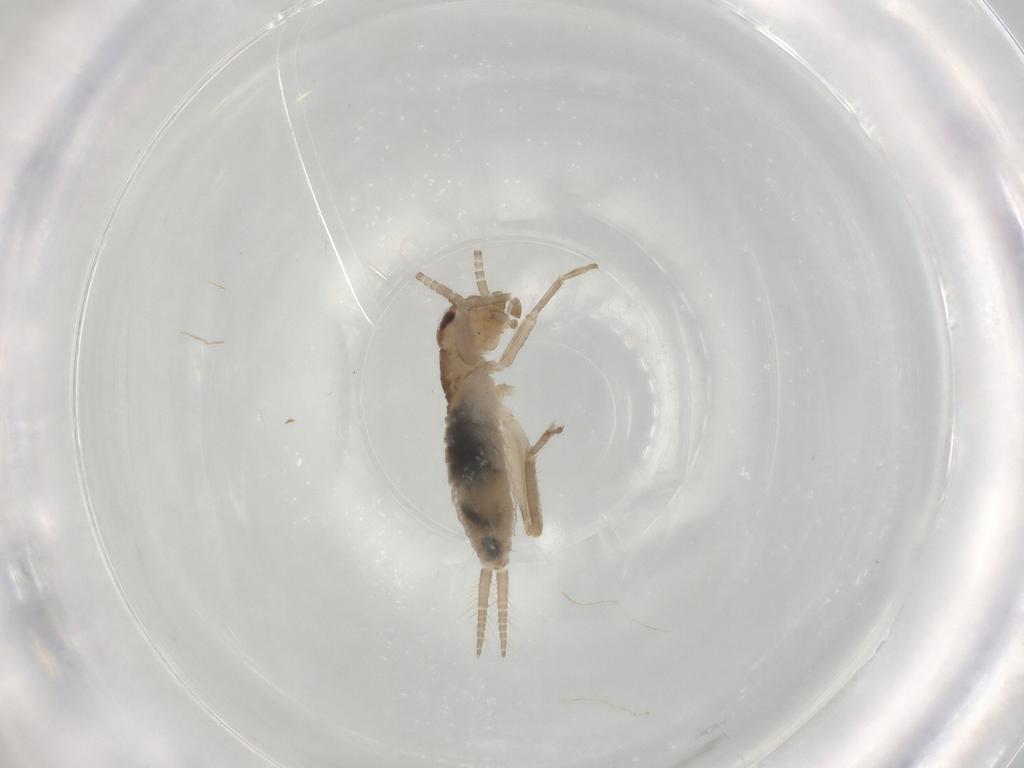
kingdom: Animalia
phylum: Arthropoda
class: Insecta
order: Orthoptera
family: Mogoplistidae
